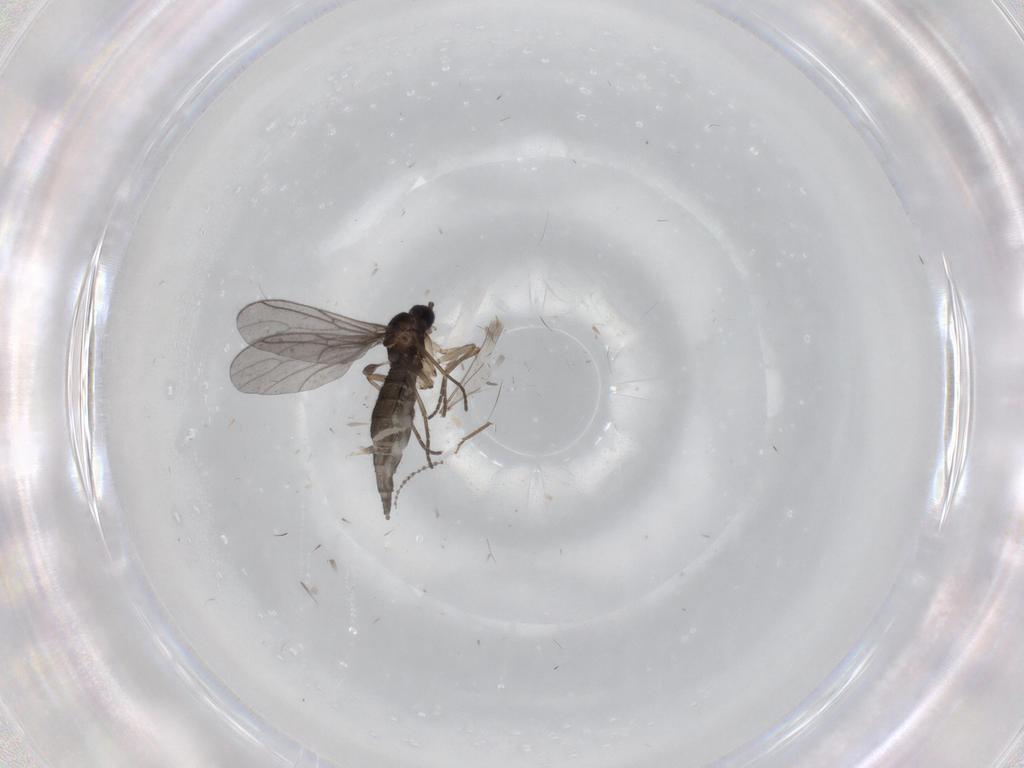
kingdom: Animalia
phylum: Arthropoda
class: Insecta
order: Diptera
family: Sciaridae
